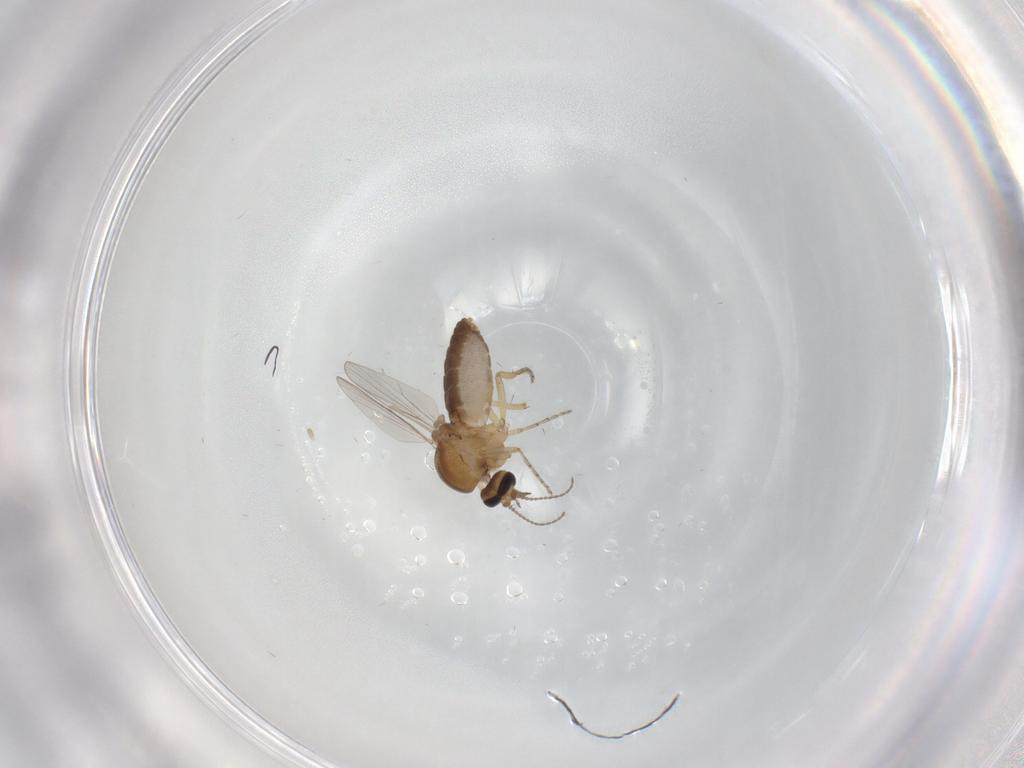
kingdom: Animalia
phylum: Arthropoda
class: Insecta
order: Diptera
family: Ceratopogonidae
